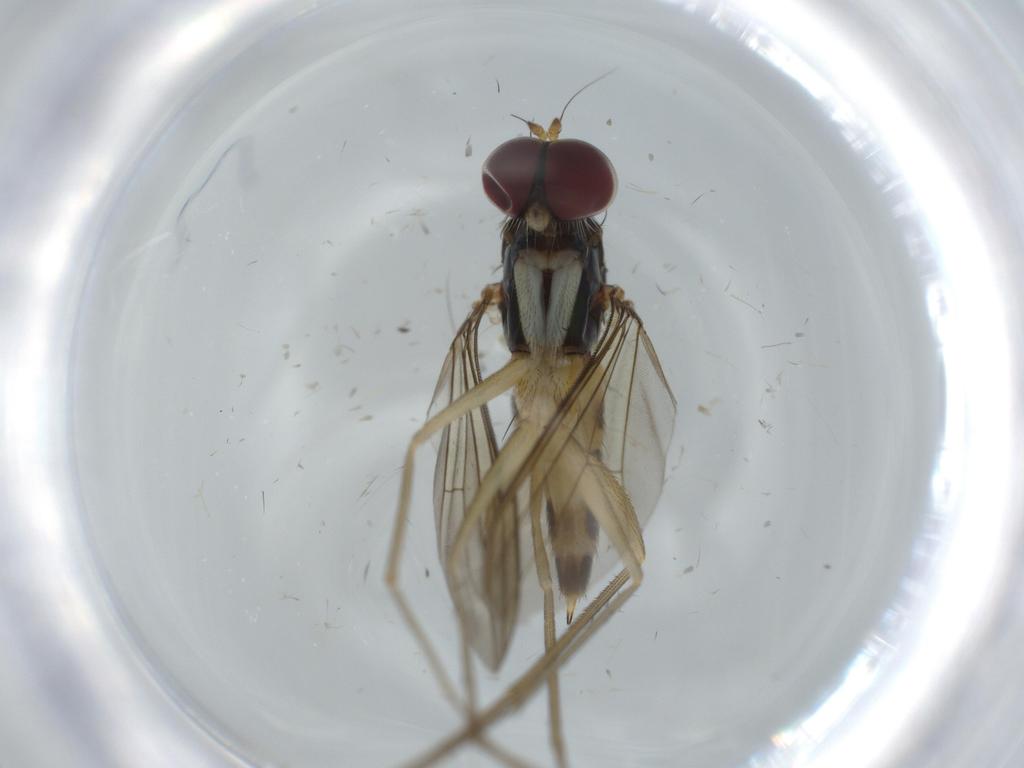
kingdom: Animalia
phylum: Arthropoda
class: Insecta
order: Diptera
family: Dolichopodidae
